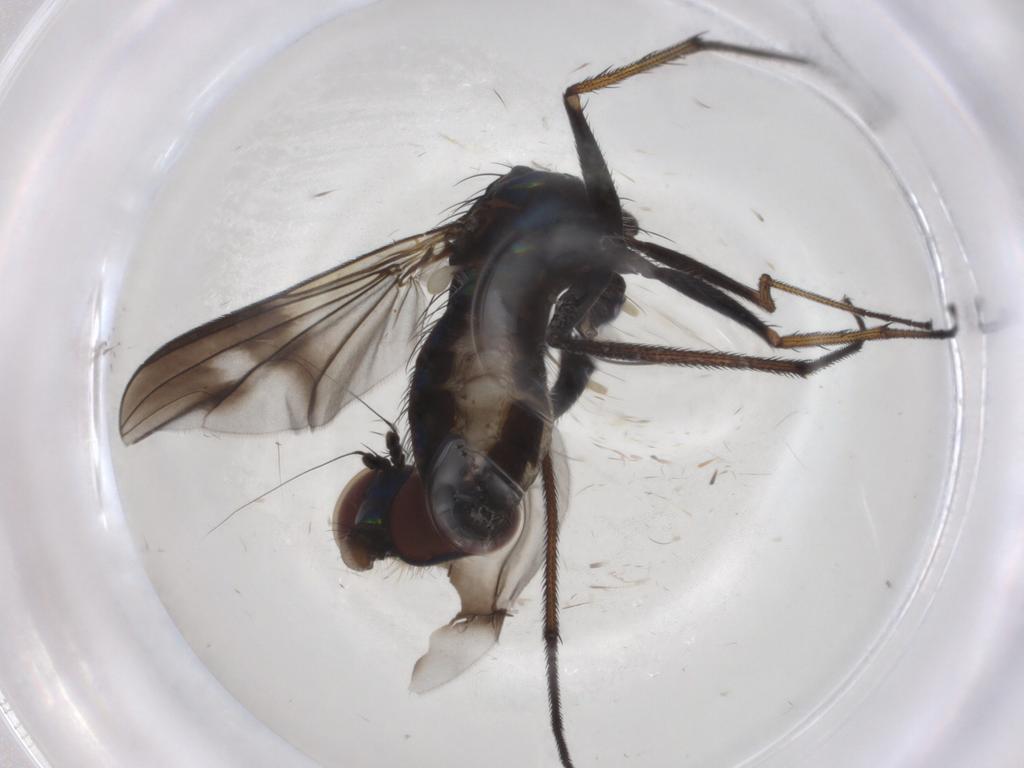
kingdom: Animalia
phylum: Arthropoda
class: Insecta
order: Diptera
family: Dolichopodidae
